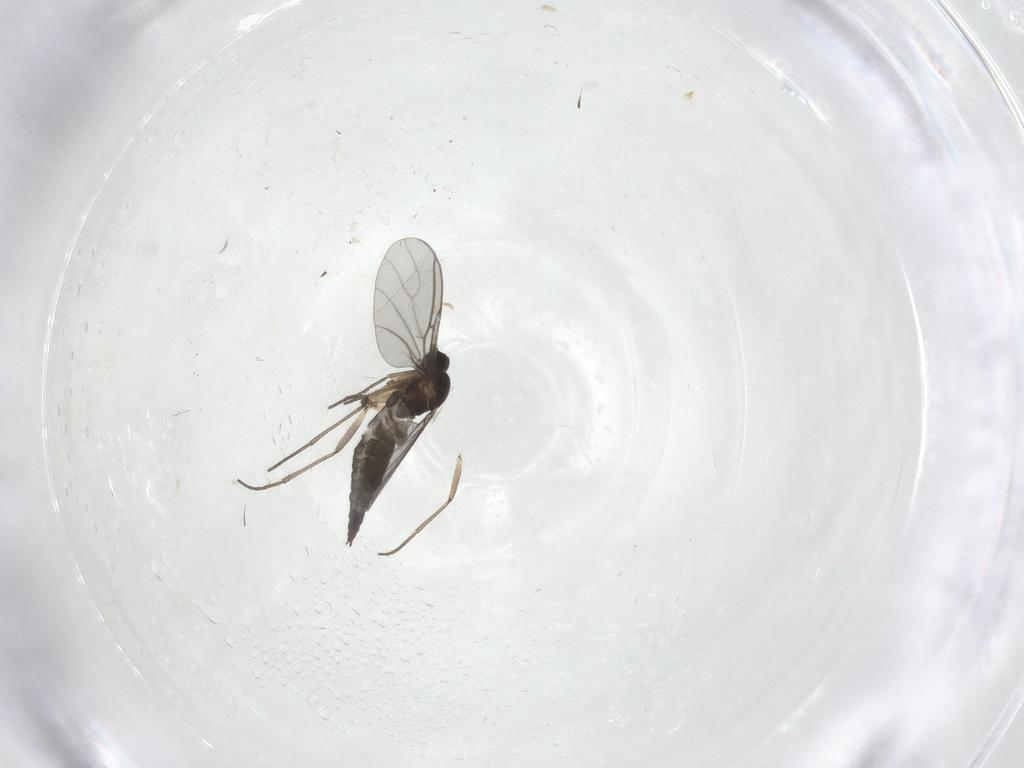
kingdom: Animalia
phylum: Arthropoda
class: Insecta
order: Diptera
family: Sciaridae
